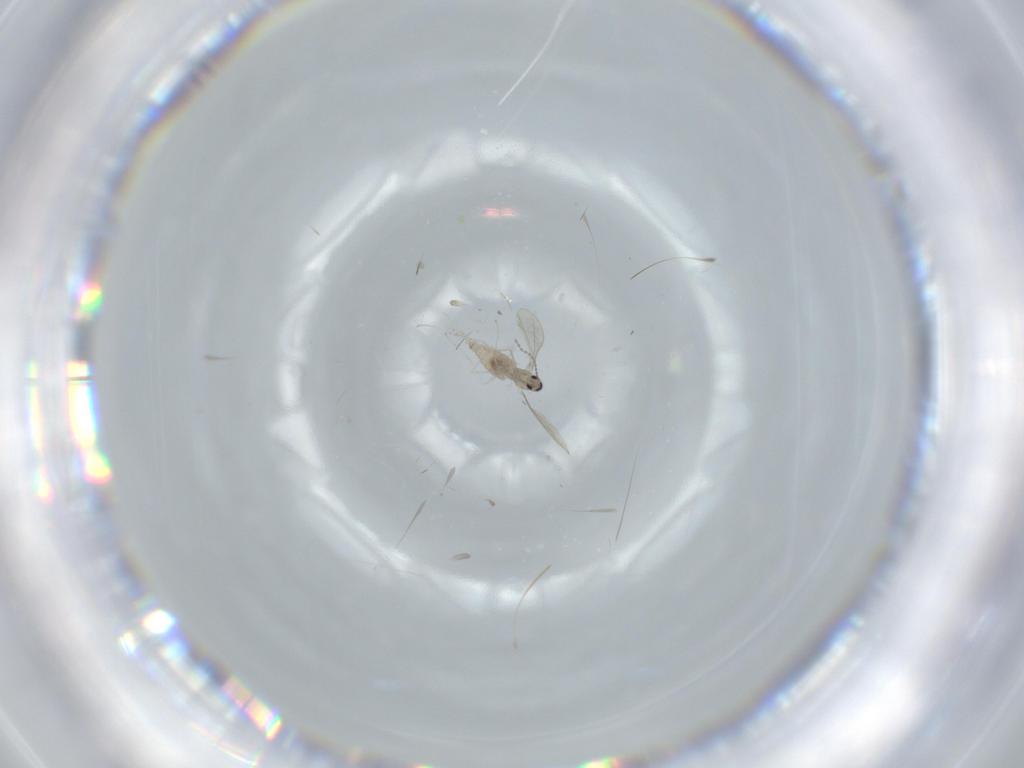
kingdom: Animalia
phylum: Arthropoda
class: Insecta
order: Diptera
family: Cecidomyiidae
